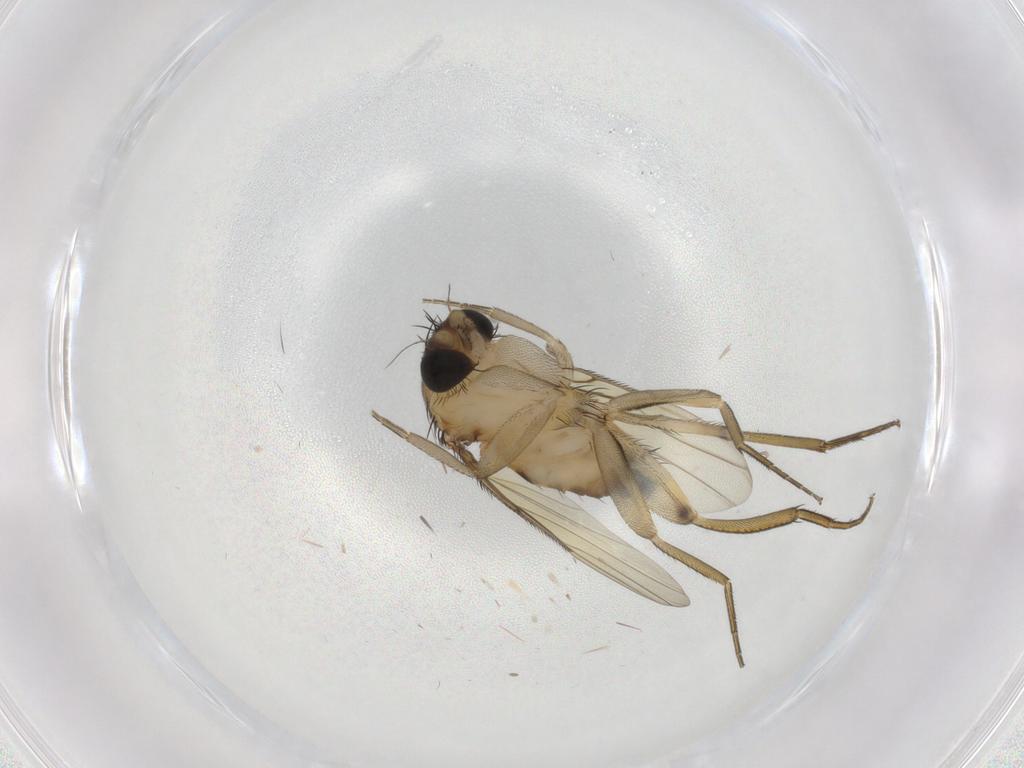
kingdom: Animalia
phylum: Arthropoda
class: Insecta
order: Diptera
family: Phoridae
